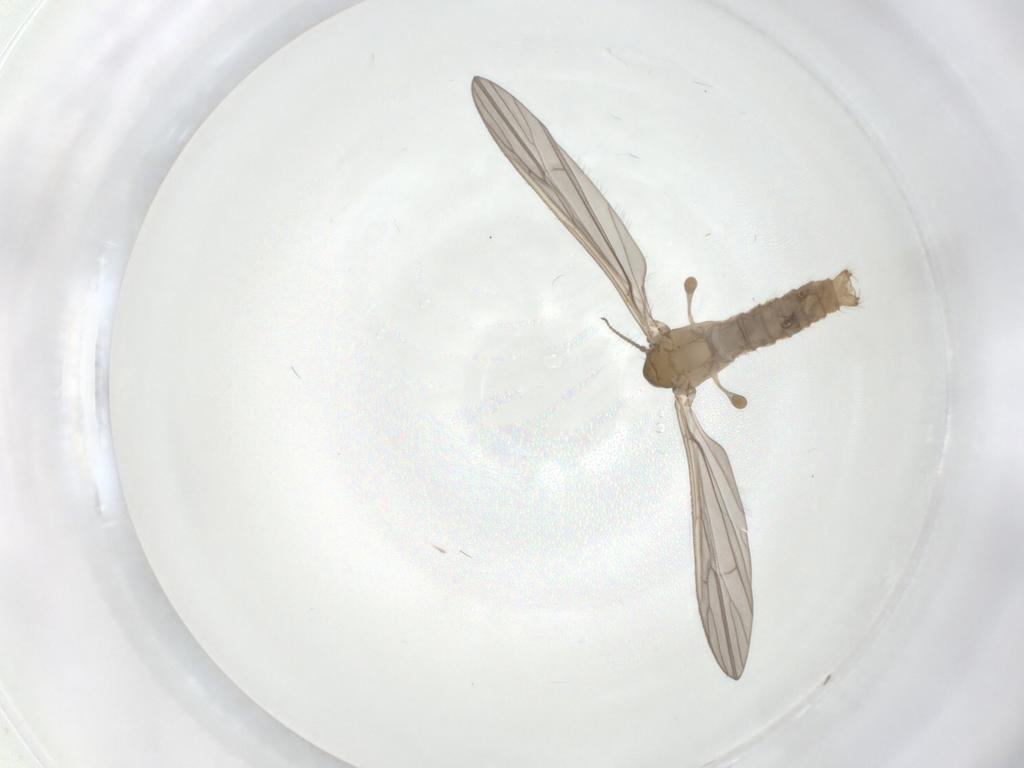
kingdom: Animalia
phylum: Arthropoda
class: Insecta
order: Diptera
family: Limoniidae
